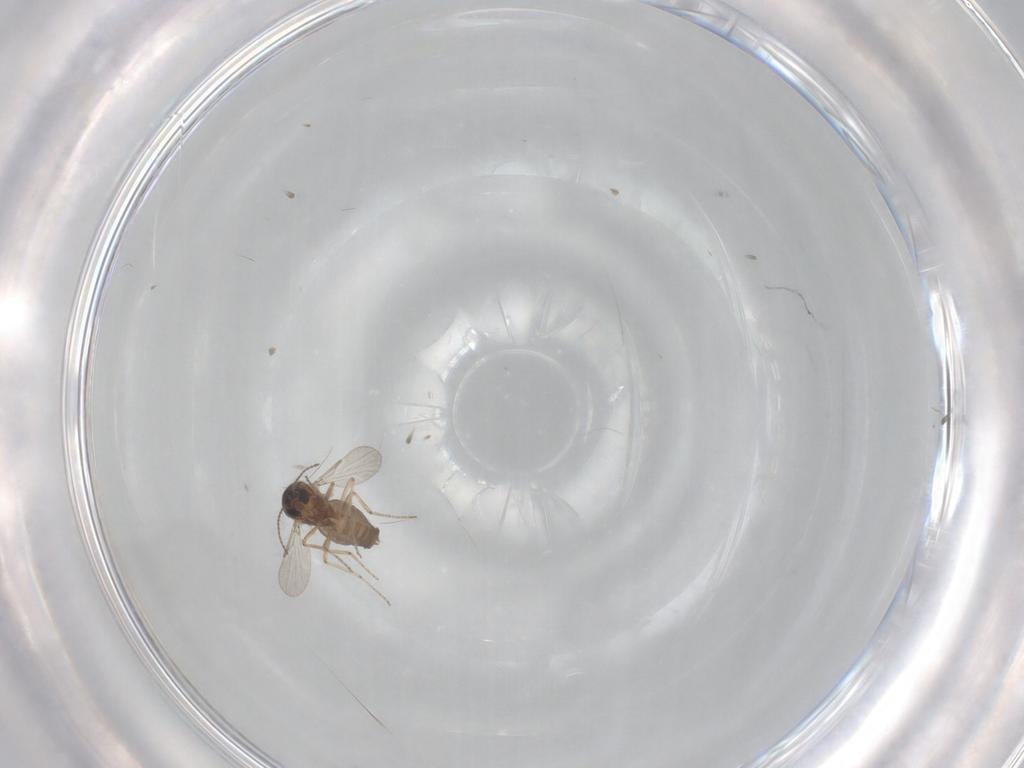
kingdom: Animalia
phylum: Arthropoda
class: Insecta
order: Diptera
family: Ceratopogonidae
